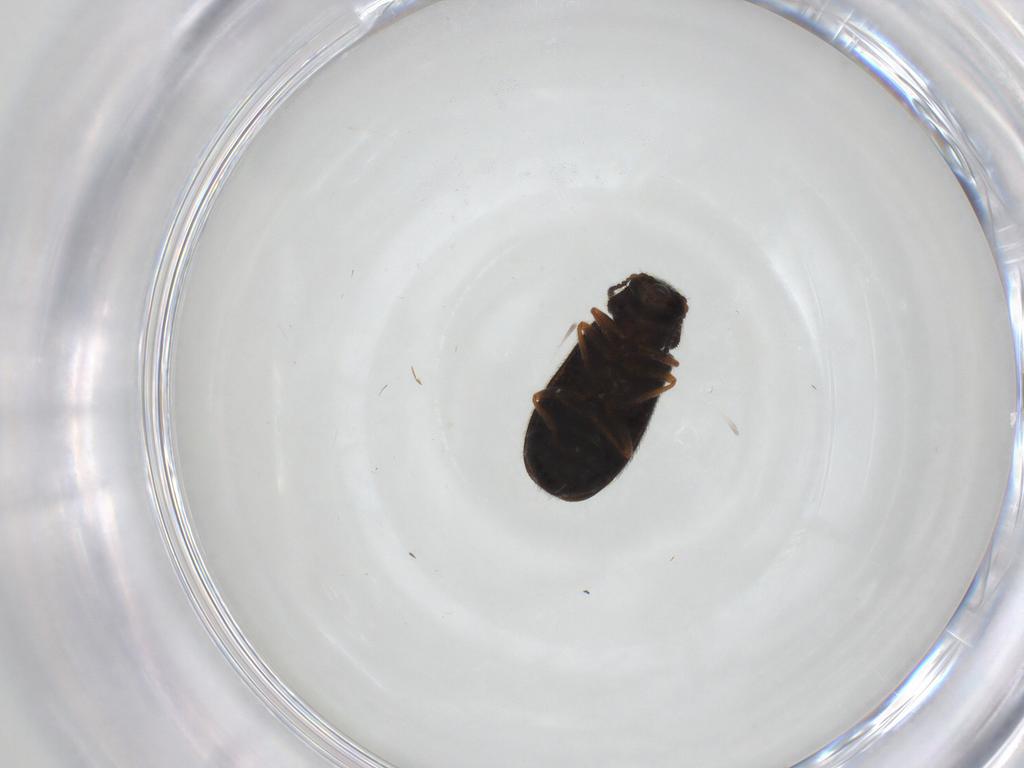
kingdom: Animalia
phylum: Arthropoda
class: Insecta
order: Coleoptera
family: Melyridae
